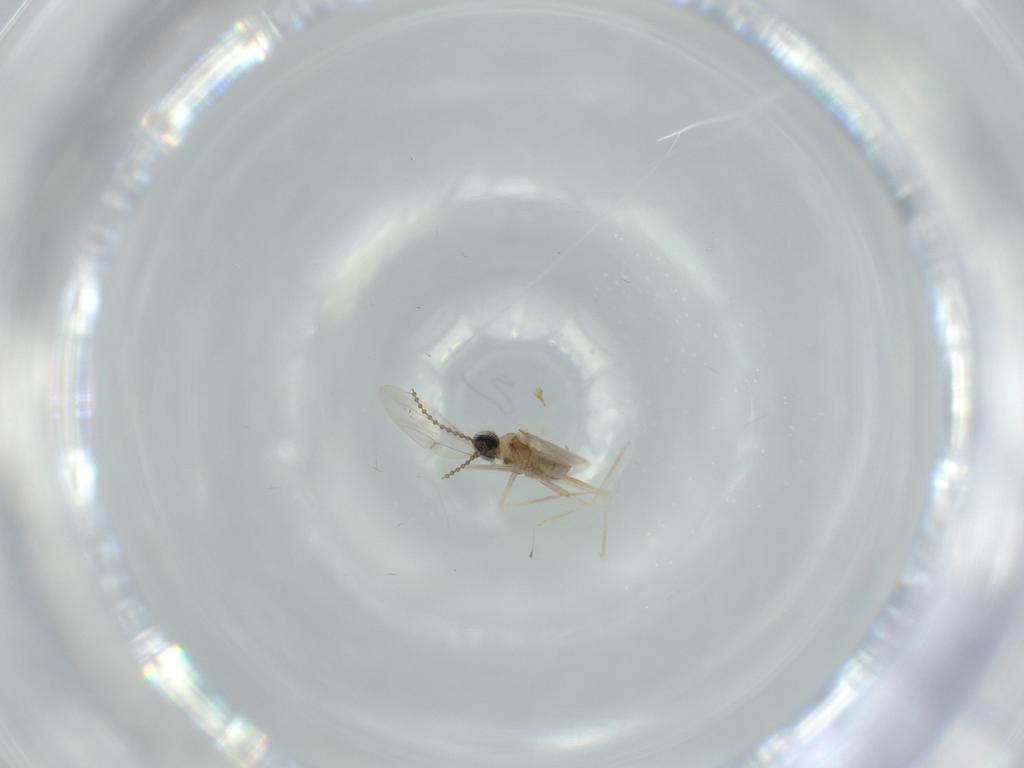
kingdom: Animalia
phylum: Arthropoda
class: Insecta
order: Diptera
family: Cecidomyiidae
